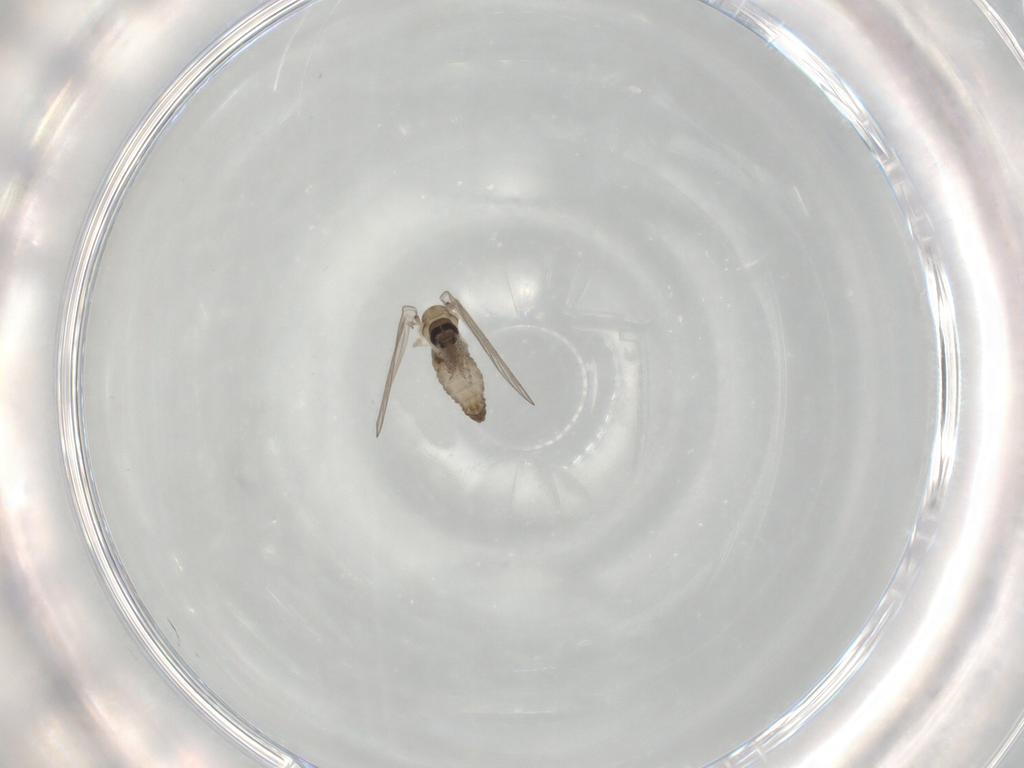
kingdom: Animalia
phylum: Arthropoda
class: Insecta
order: Diptera
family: Psychodidae
